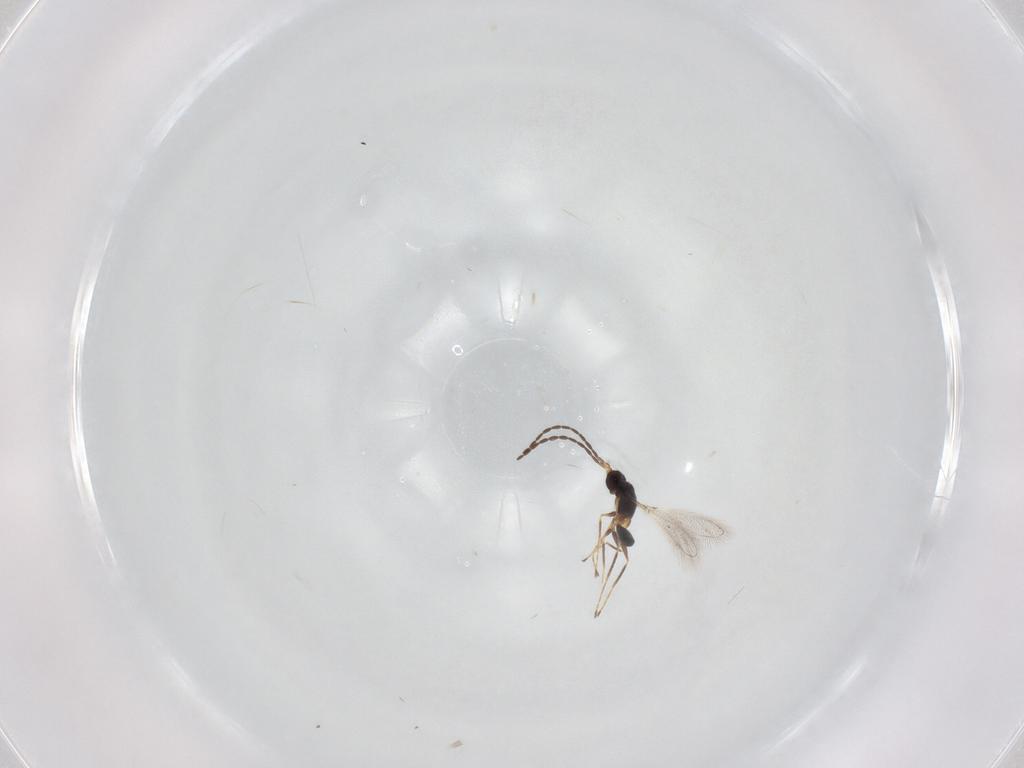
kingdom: Animalia
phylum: Arthropoda
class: Insecta
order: Hymenoptera
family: Mymaridae
